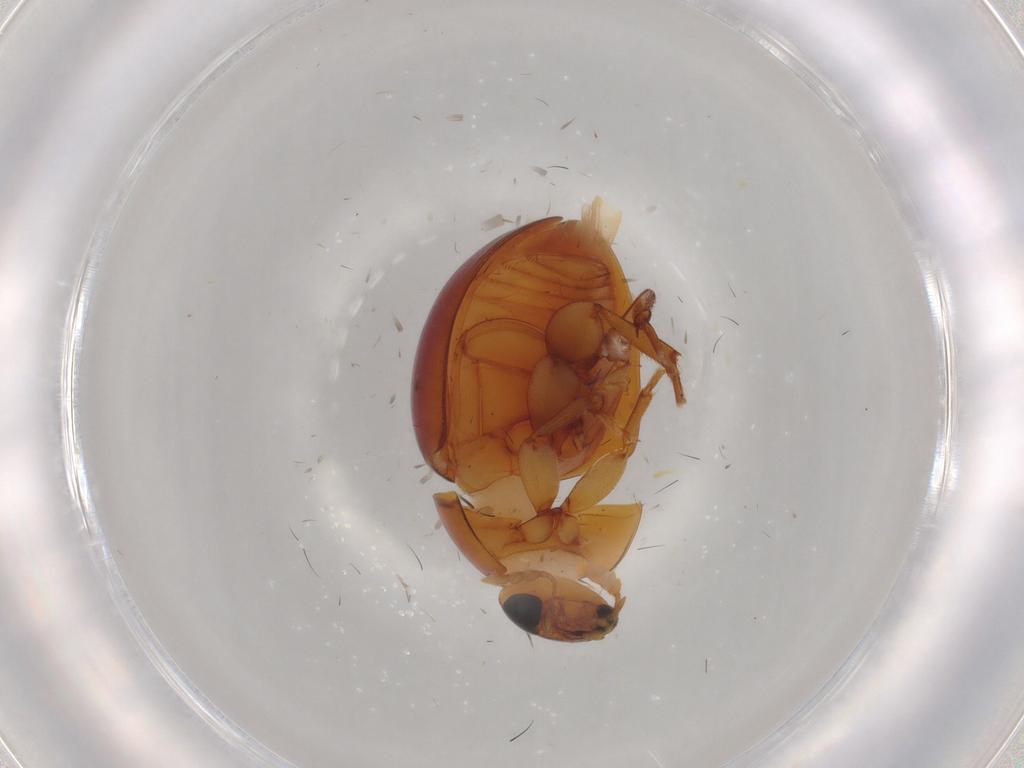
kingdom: Animalia
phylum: Arthropoda
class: Insecta
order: Coleoptera
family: Phalacridae
